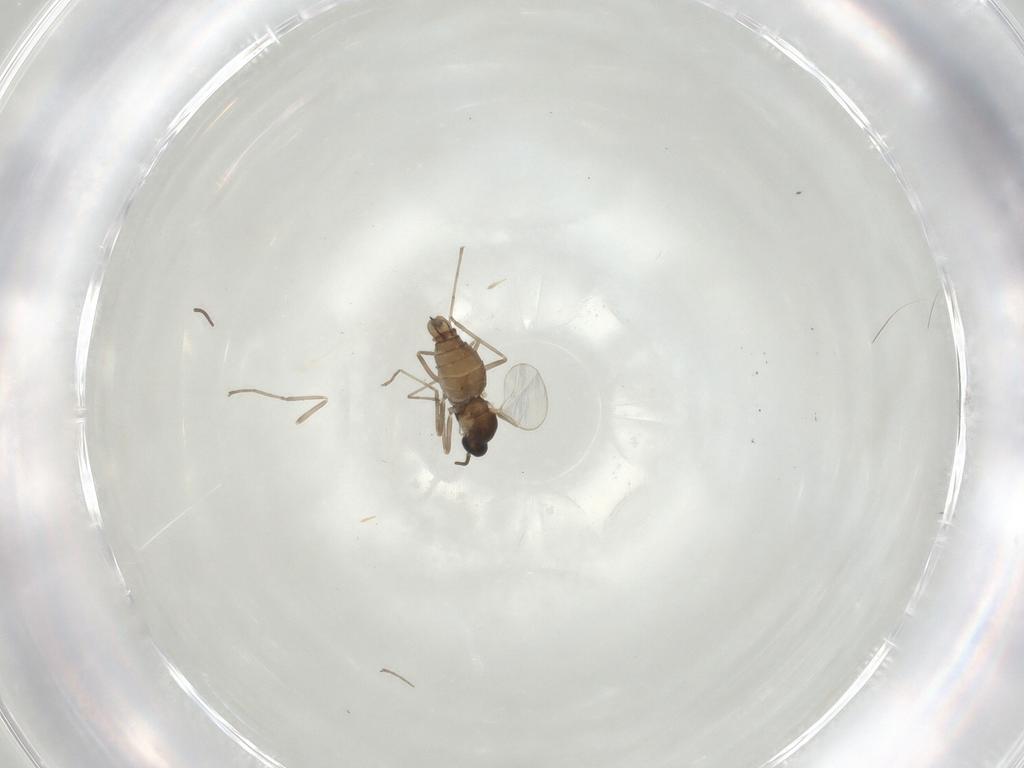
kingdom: Animalia
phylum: Arthropoda
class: Insecta
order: Diptera
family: Cecidomyiidae
